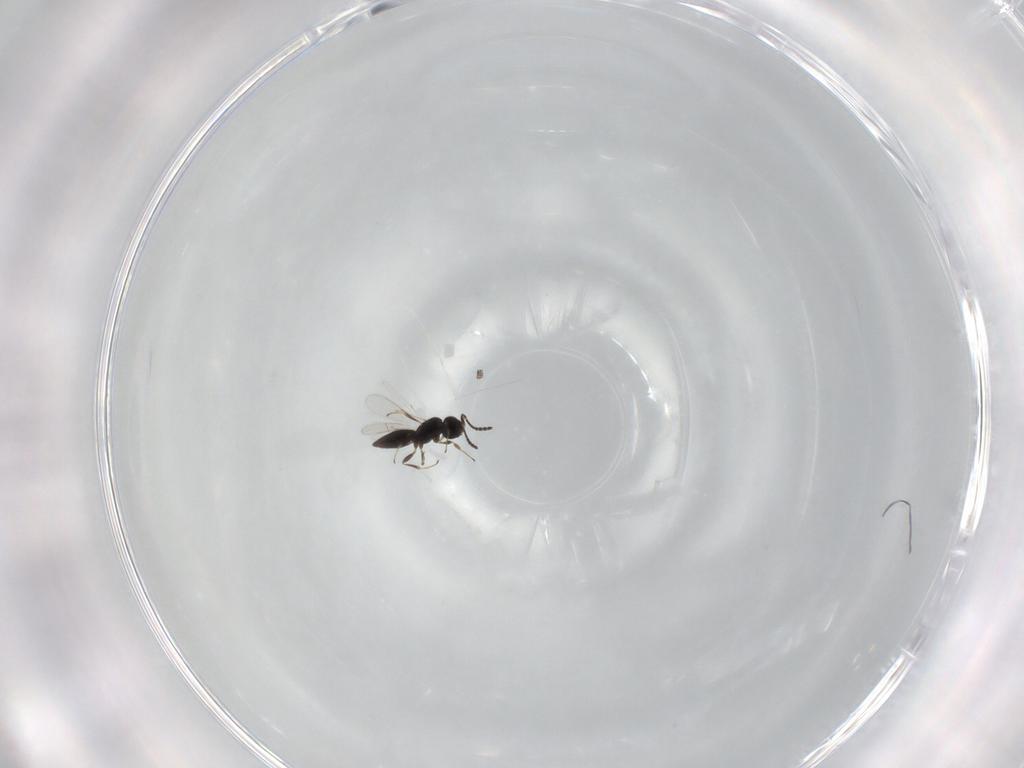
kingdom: Animalia
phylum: Arthropoda
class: Insecta
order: Hymenoptera
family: Scelionidae
